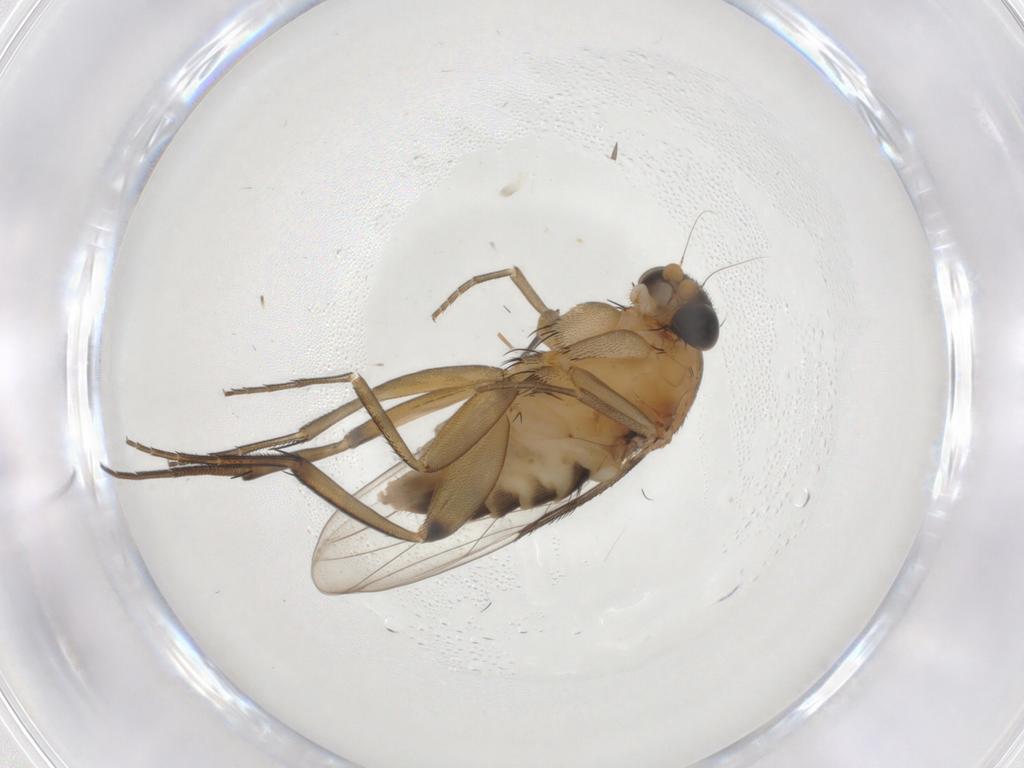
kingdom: Animalia
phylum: Arthropoda
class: Insecta
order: Diptera
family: Phoridae
